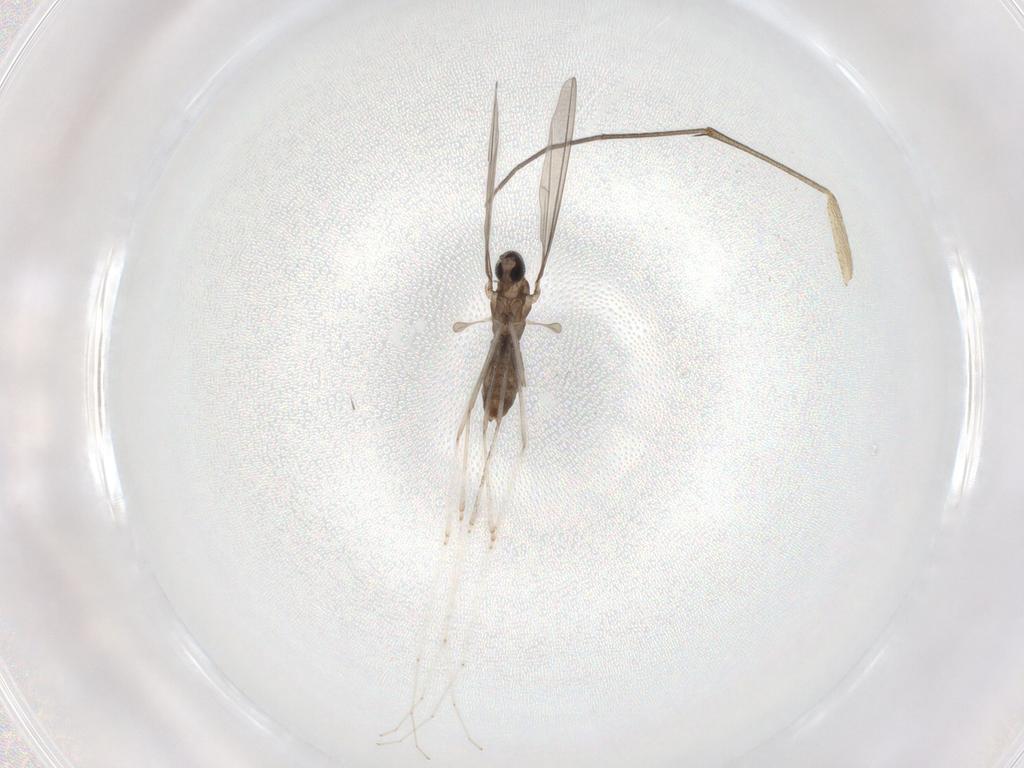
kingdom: Animalia
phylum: Arthropoda
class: Insecta
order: Diptera
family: Cecidomyiidae
